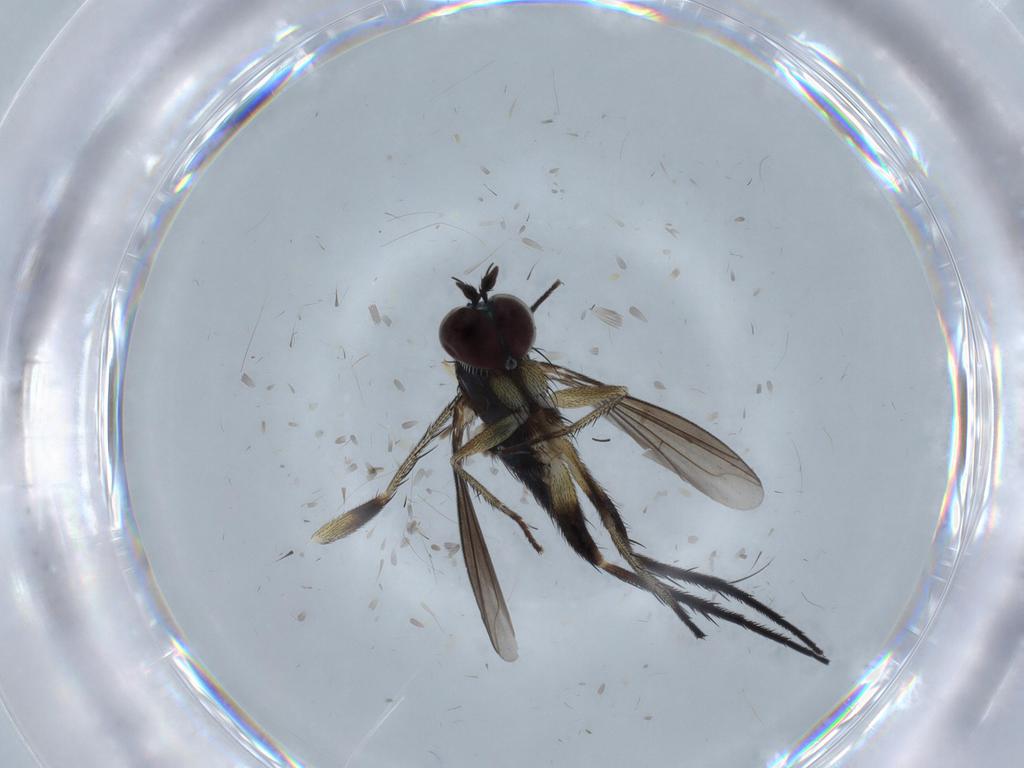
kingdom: Animalia
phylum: Arthropoda
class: Insecta
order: Diptera
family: Dolichopodidae
